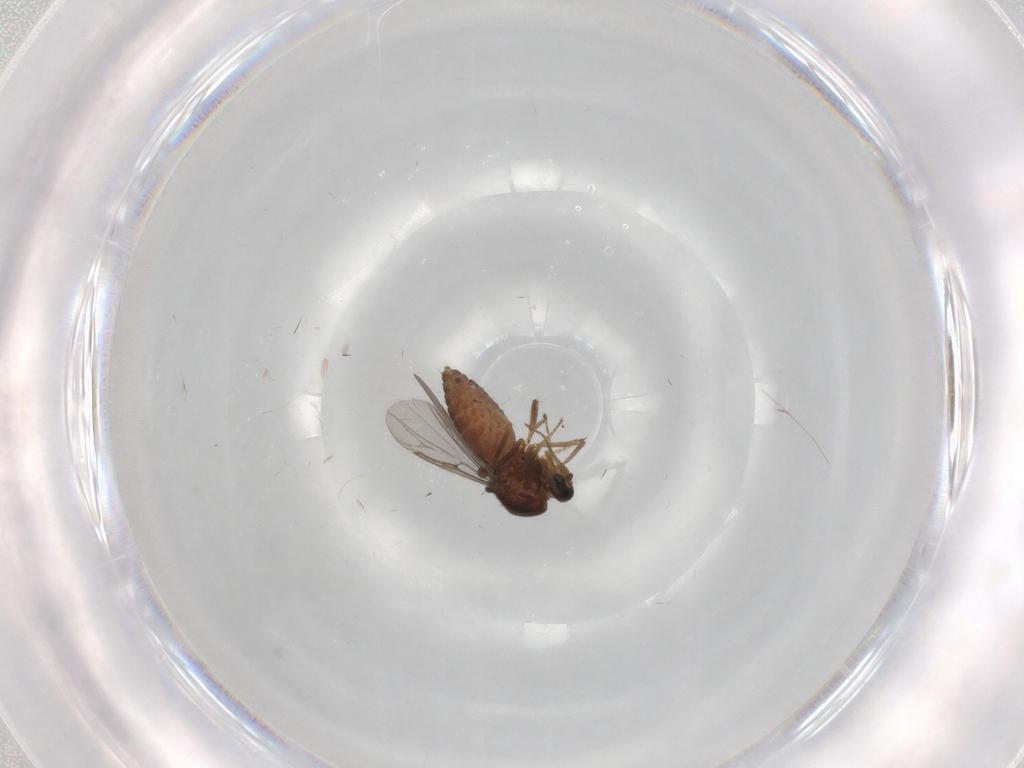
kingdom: Animalia
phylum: Arthropoda
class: Insecta
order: Diptera
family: Ceratopogonidae
